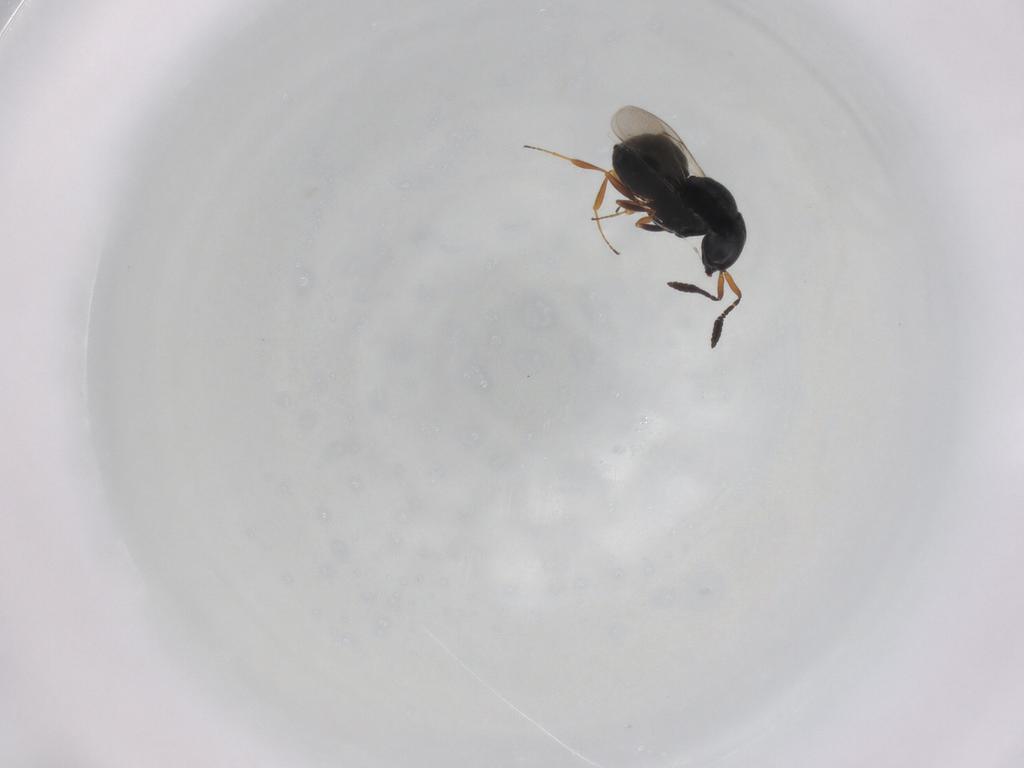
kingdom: Animalia
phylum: Arthropoda
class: Insecta
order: Hymenoptera
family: Scelionidae
